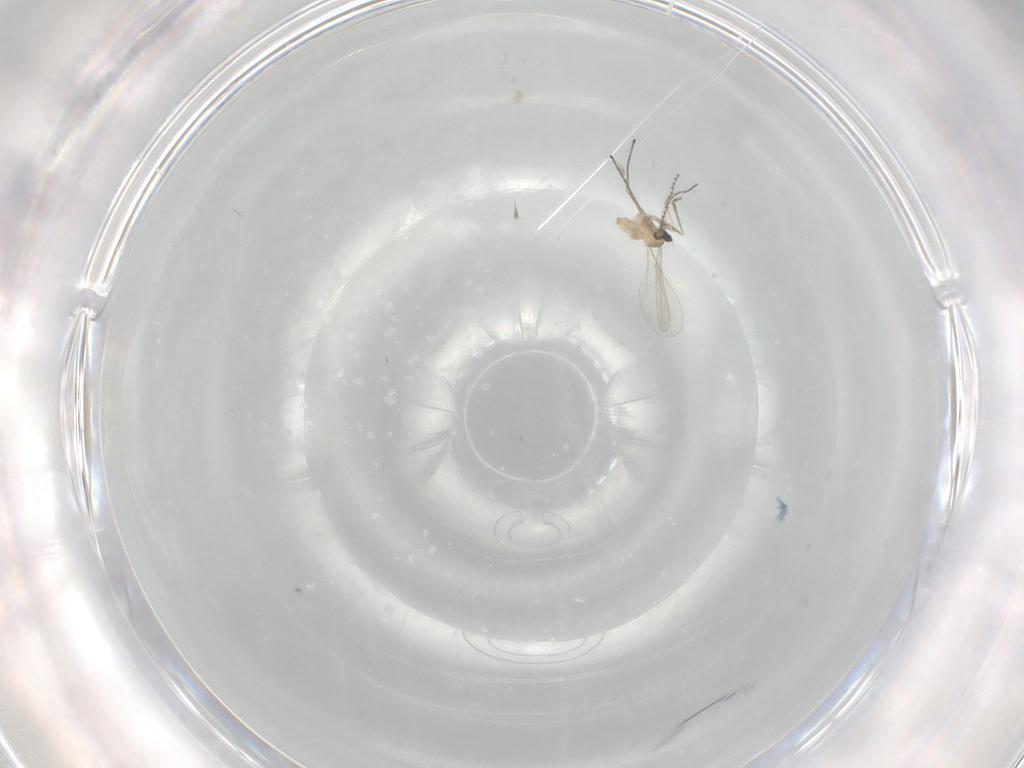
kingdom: Animalia
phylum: Arthropoda
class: Insecta
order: Diptera
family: Cecidomyiidae
